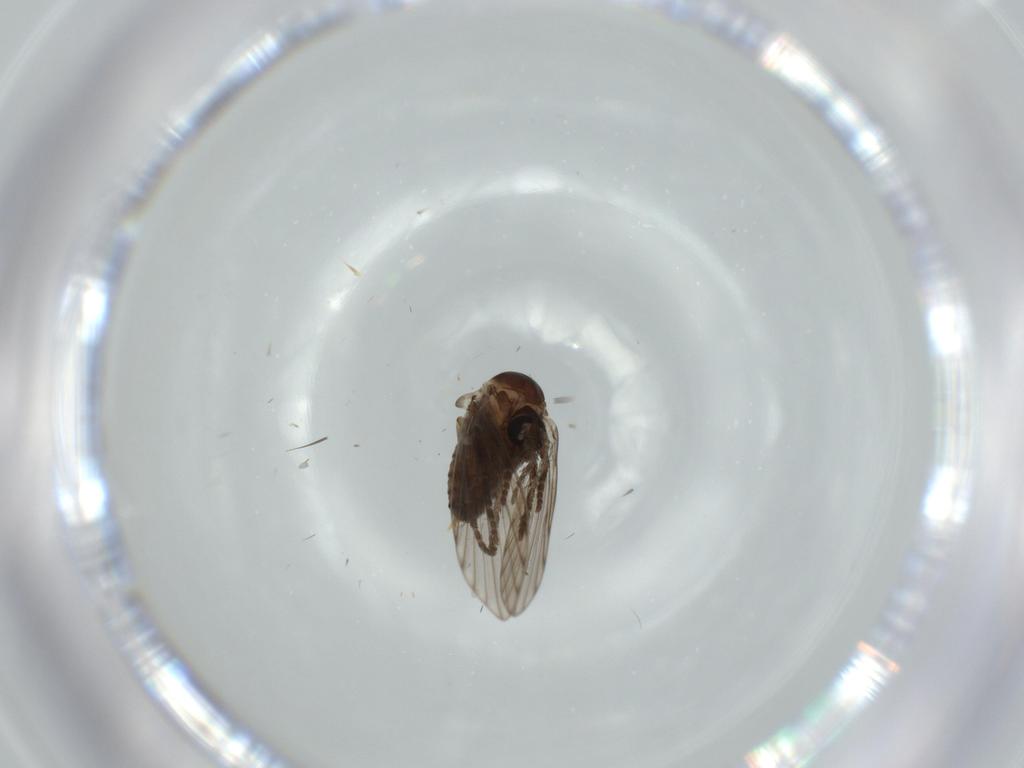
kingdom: Animalia
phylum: Arthropoda
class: Insecta
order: Diptera
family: Psychodidae
